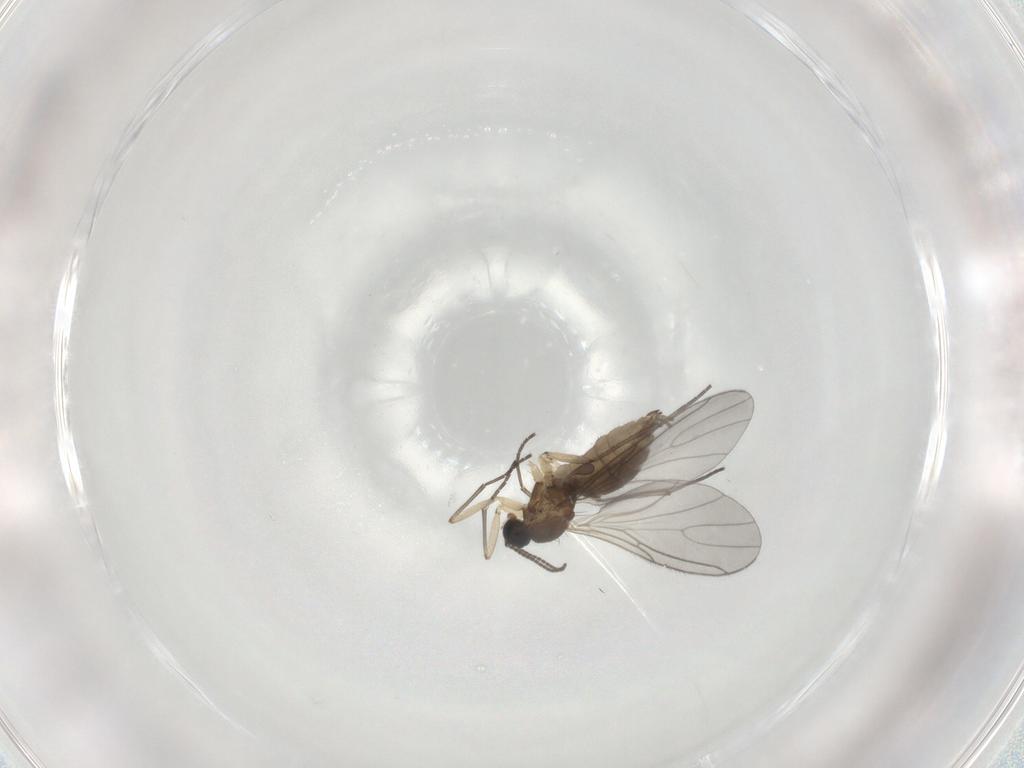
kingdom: Animalia
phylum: Arthropoda
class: Insecta
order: Diptera
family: Sciaridae
